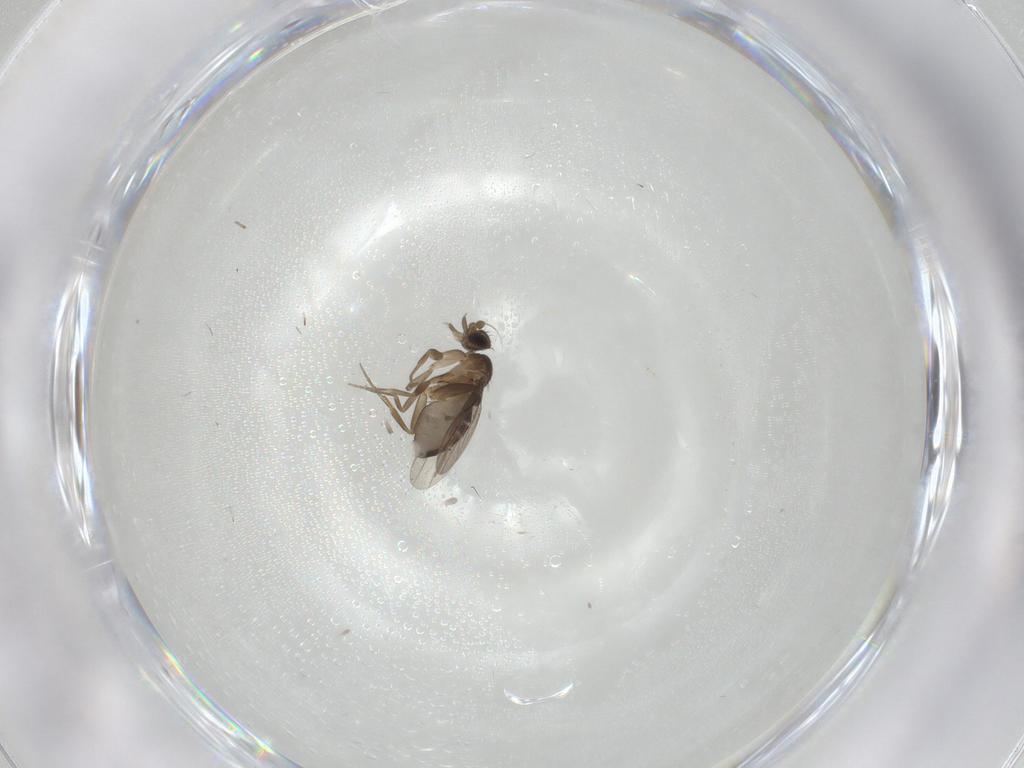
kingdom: Animalia
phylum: Arthropoda
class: Insecta
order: Diptera
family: Phoridae
